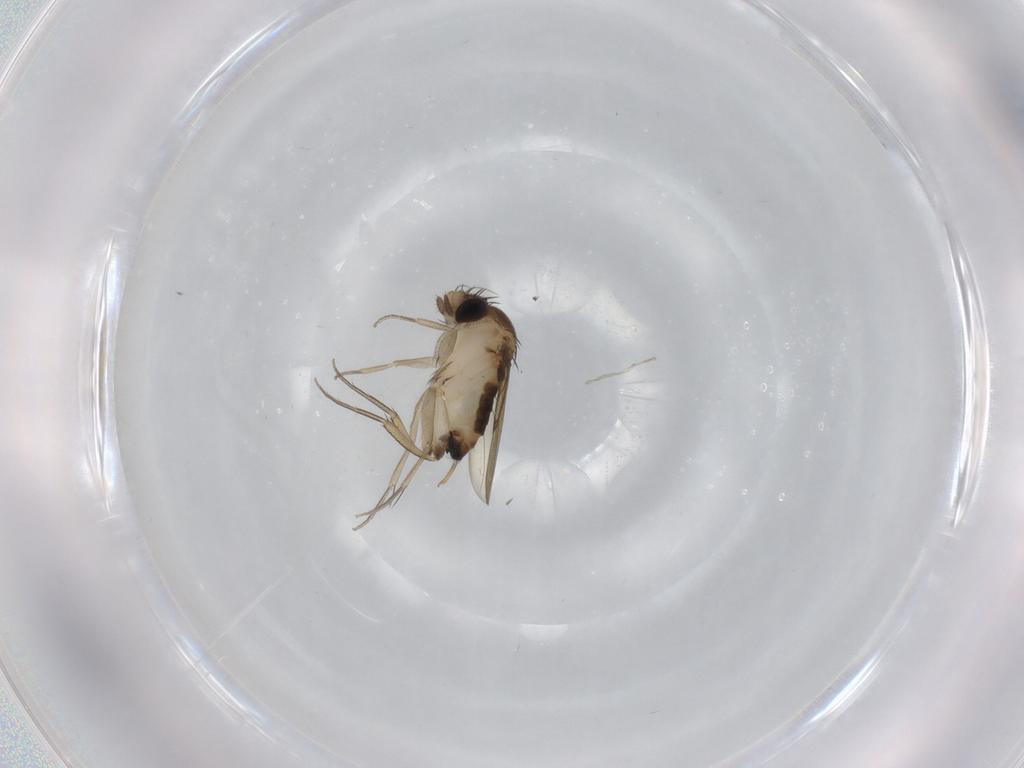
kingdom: Animalia
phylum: Arthropoda
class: Insecta
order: Diptera
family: Phoridae
